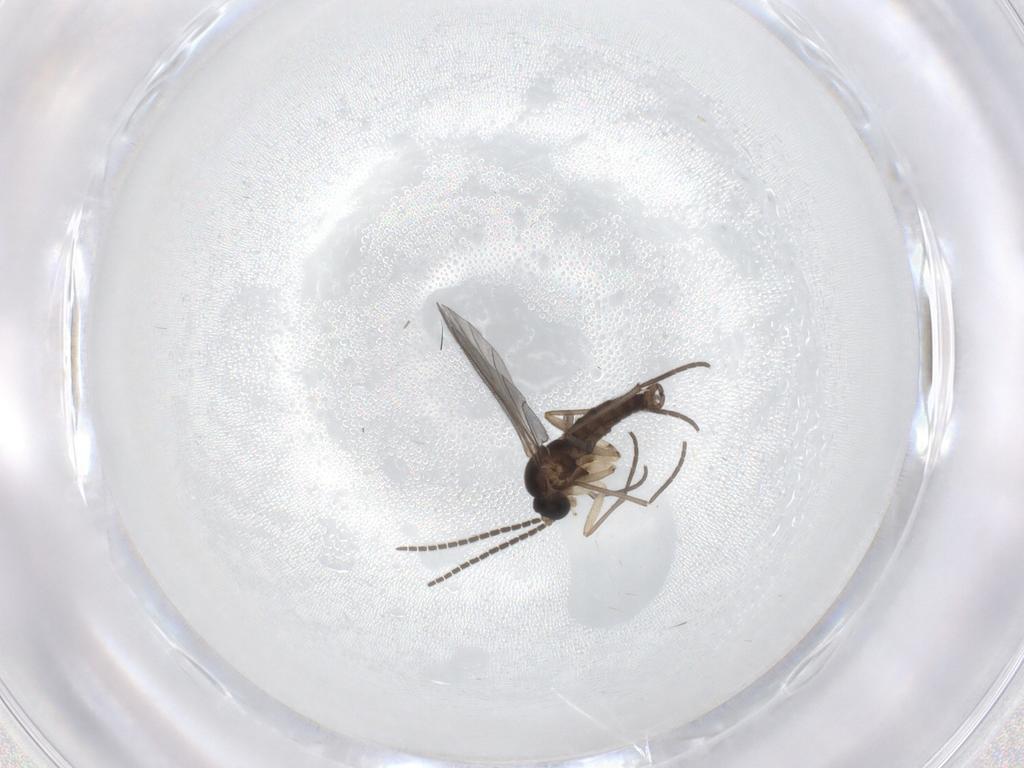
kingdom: Animalia
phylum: Arthropoda
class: Insecta
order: Diptera
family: Sciaridae
